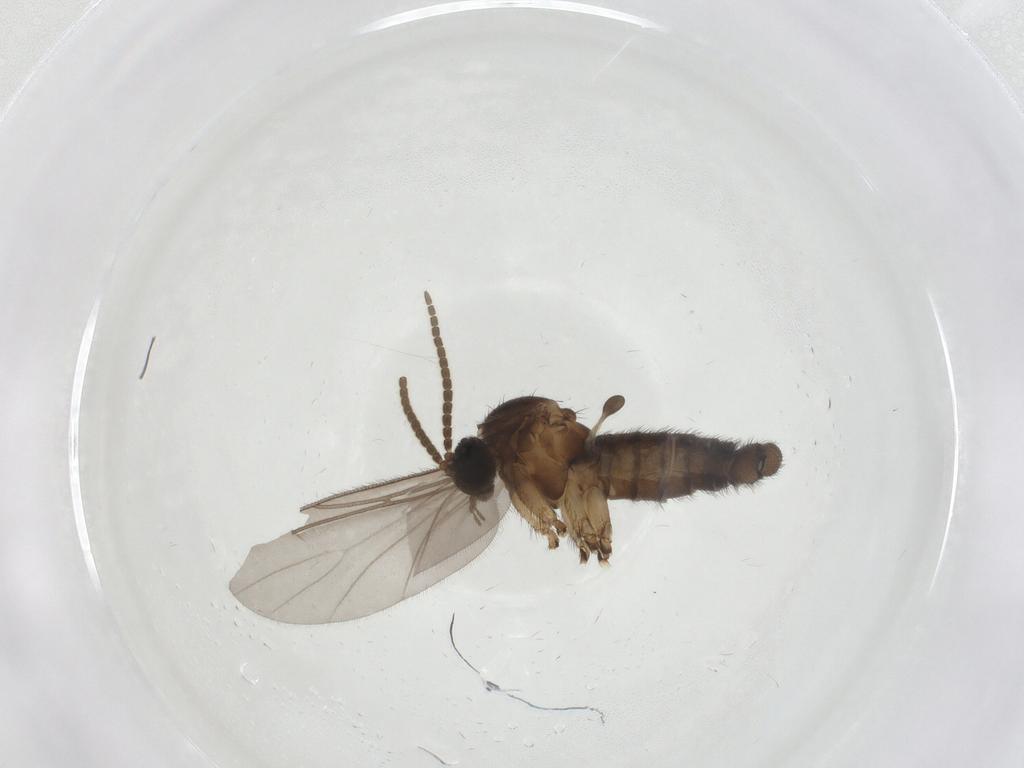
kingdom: Animalia
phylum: Arthropoda
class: Insecta
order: Diptera
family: Sciaridae
